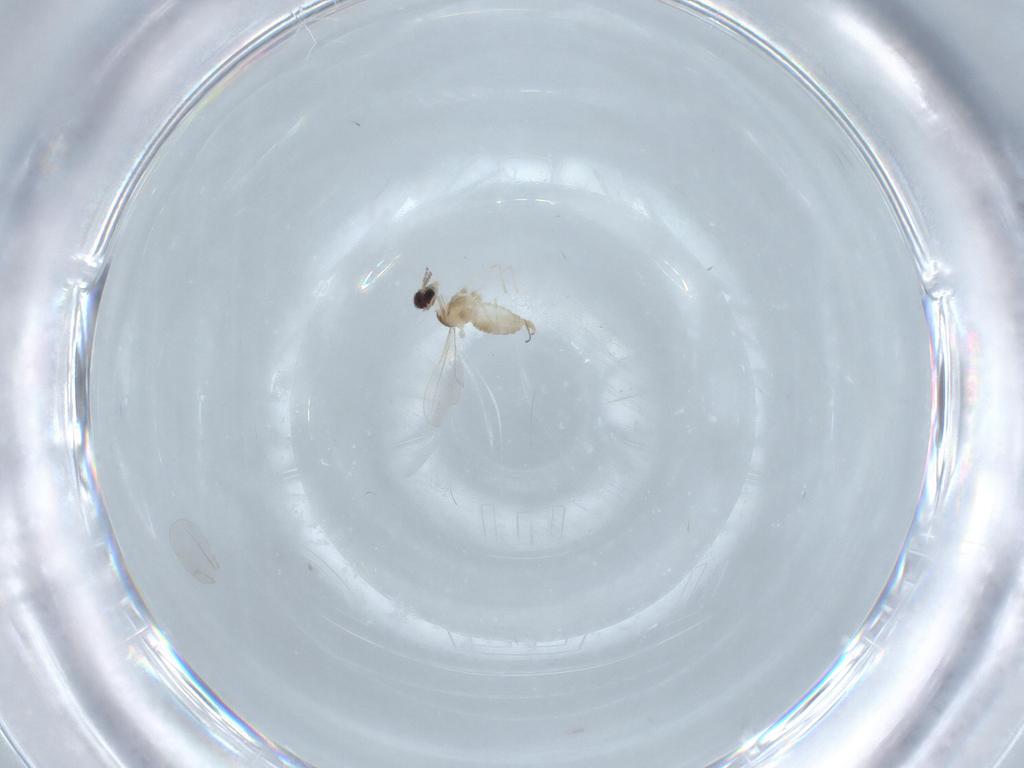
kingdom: Animalia
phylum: Arthropoda
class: Insecta
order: Diptera
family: Cecidomyiidae
